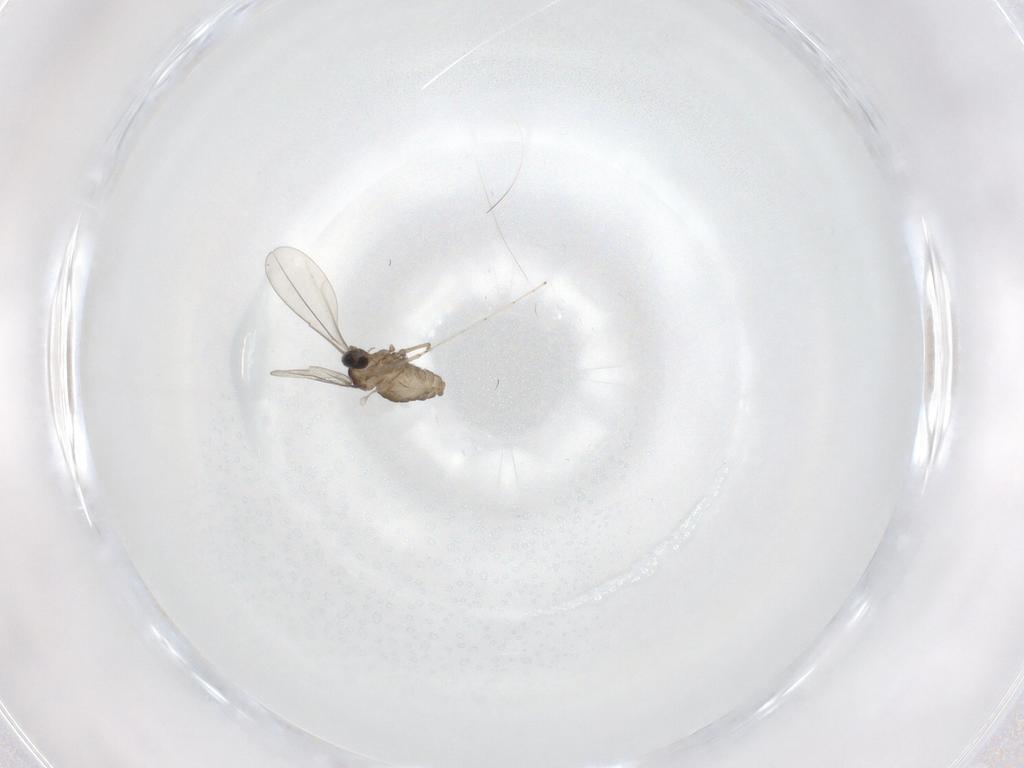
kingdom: Animalia
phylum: Arthropoda
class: Insecta
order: Diptera
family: Cecidomyiidae
